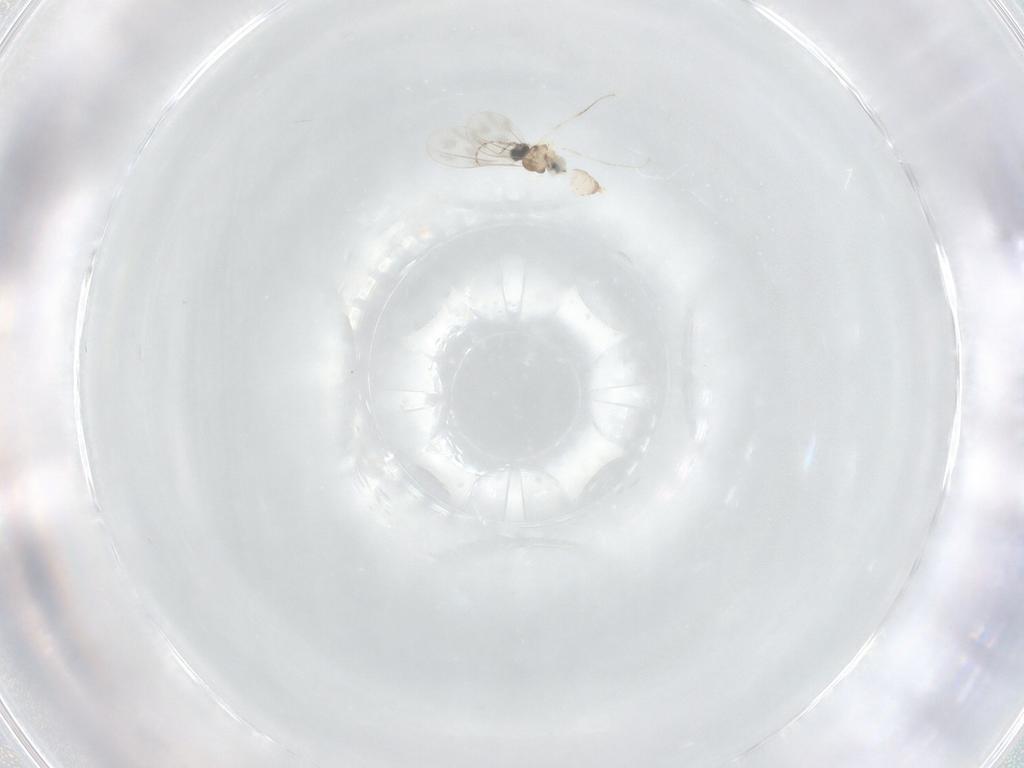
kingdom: Animalia
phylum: Arthropoda
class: Insecta
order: Diptera
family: Cecidomyiidae
